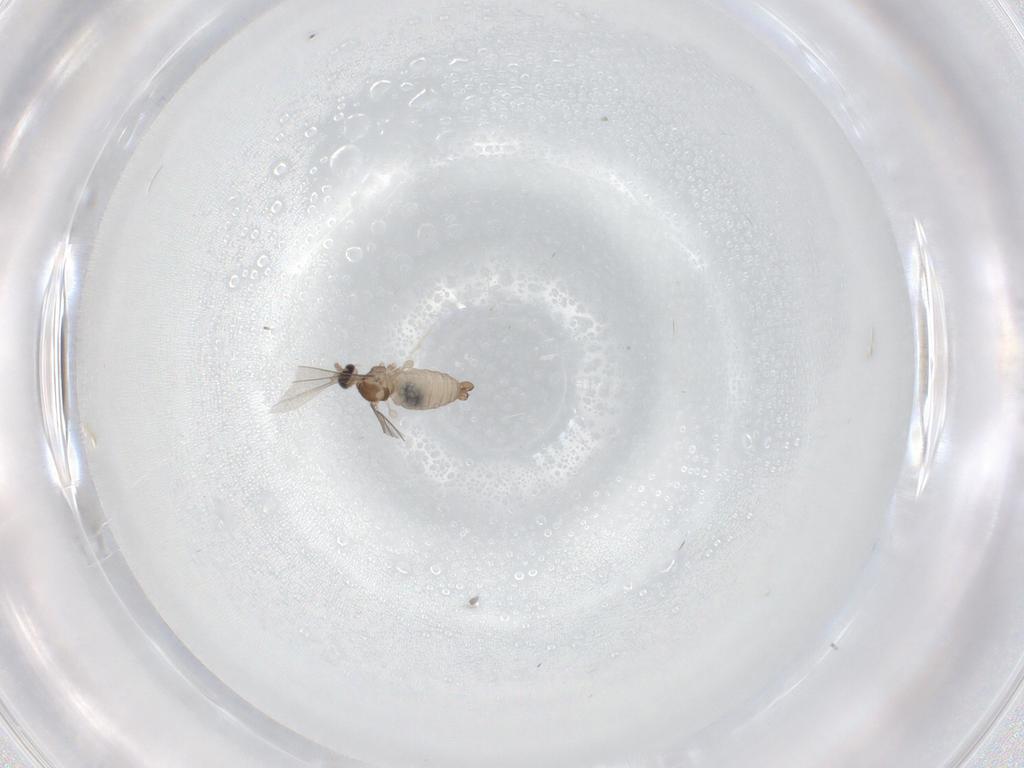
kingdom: Animalia
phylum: Arthropoda
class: Insecta
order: Diptera
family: Cecidomyiidae
